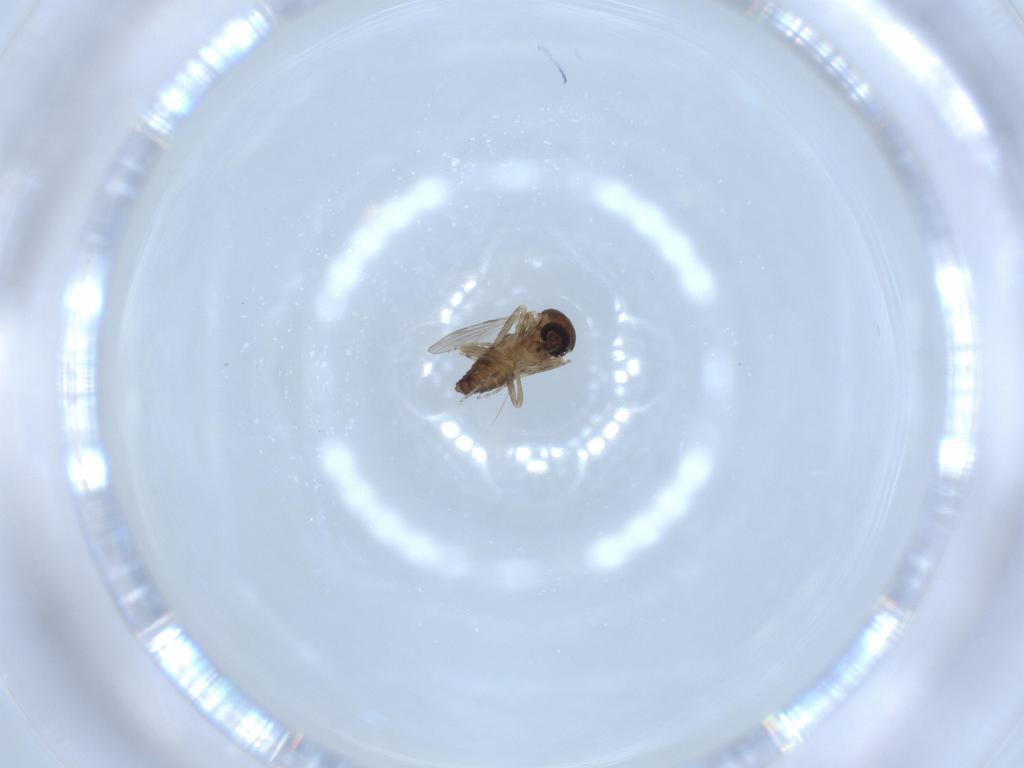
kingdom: Animalia
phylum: Arthropoda
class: Insecta
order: Diptera
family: Ceratopogonidae
